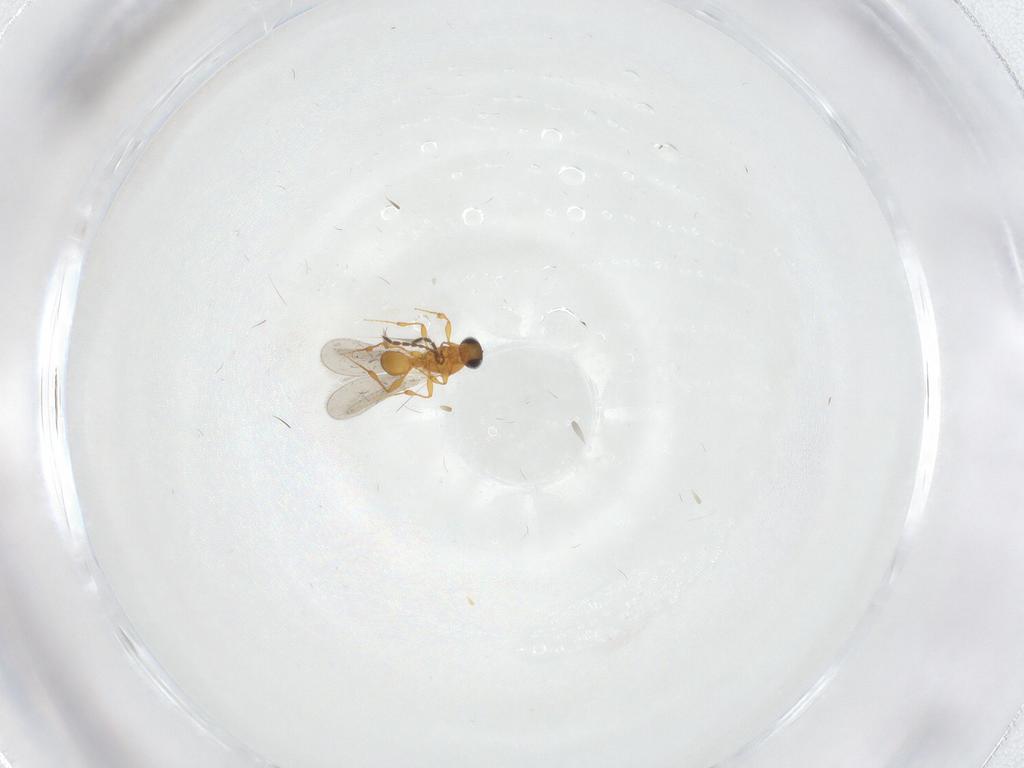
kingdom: Animalia
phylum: Arthropoda
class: Insecta
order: Hymenoptera
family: Platygastridae
